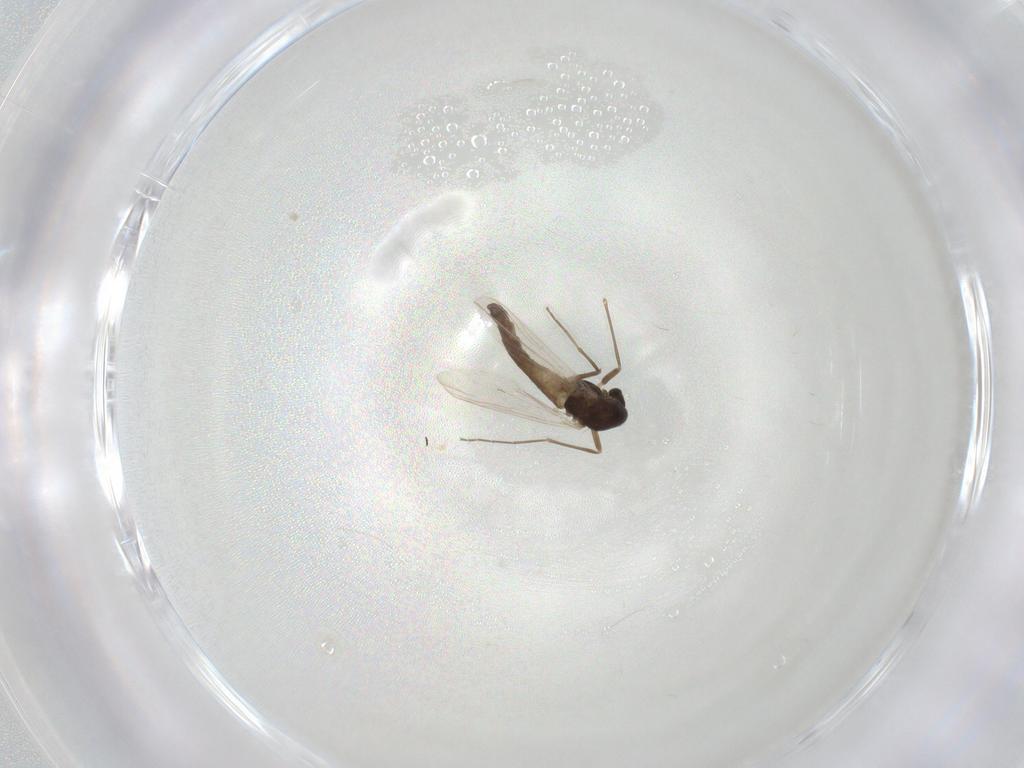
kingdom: Animalia
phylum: Arthropoda
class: Insecta
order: Diptera
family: Chironomidae
